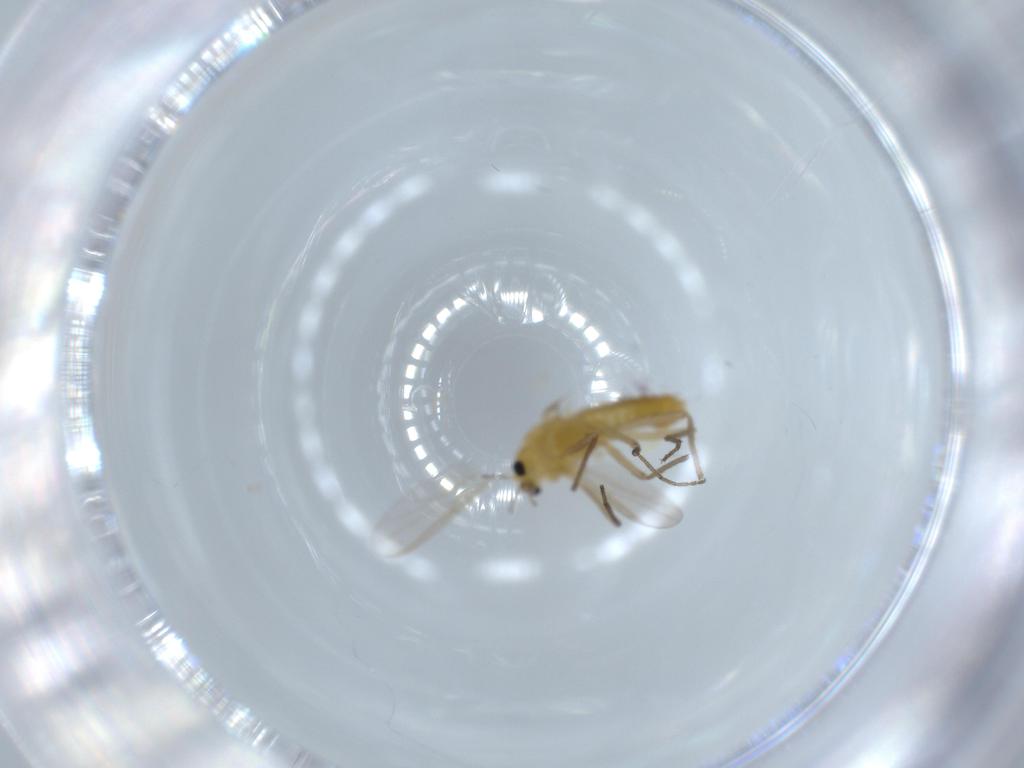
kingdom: Animalia
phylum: Arthropoda
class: Insecta
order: Diptera
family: Chironomidae
